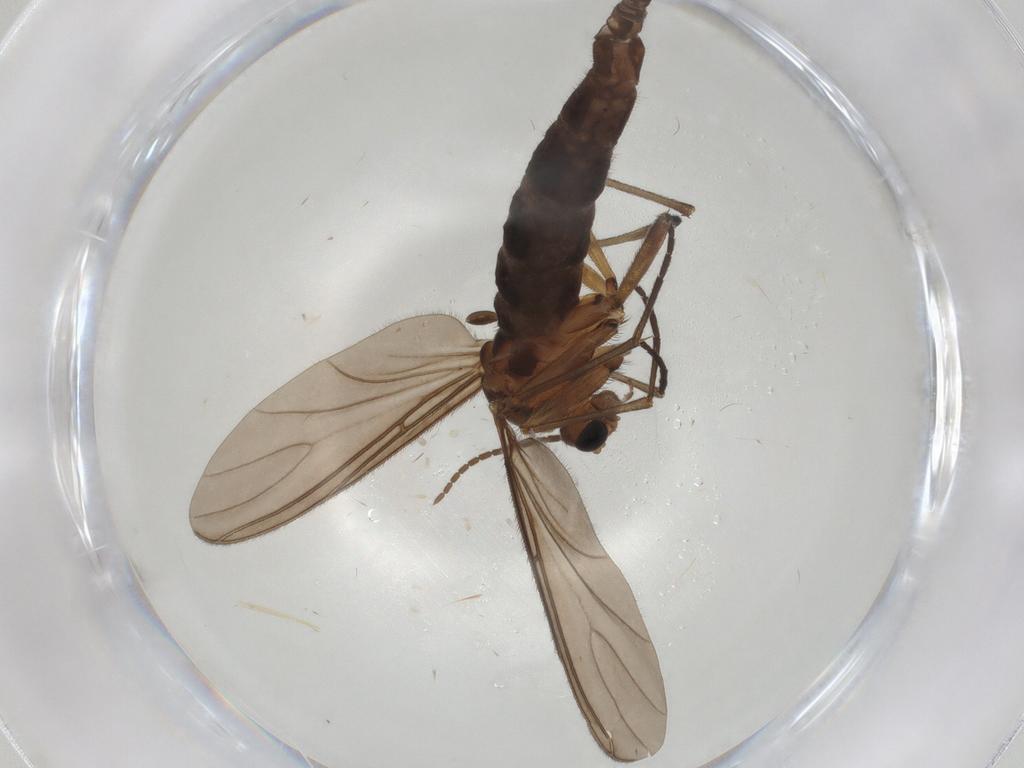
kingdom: Animalia
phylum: Arthropoda
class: Insecta
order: Diptera
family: Sciaridae
